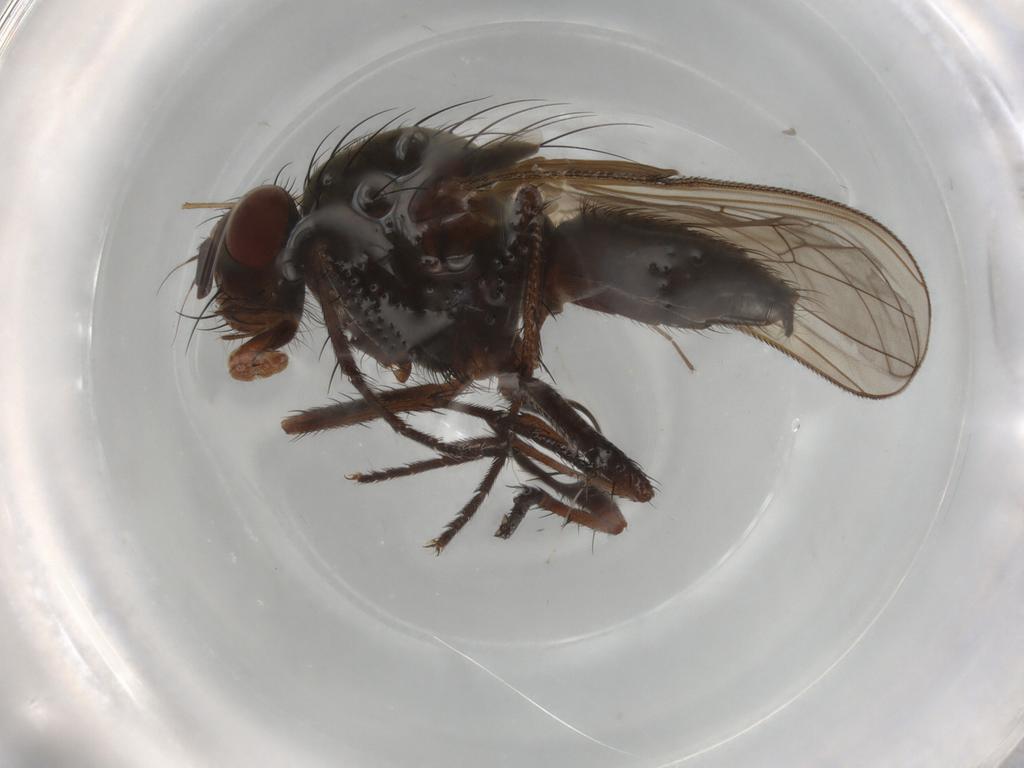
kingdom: Animalia
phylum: Arthropoda
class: Insecta
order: Diptera
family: Anthomyiidae
